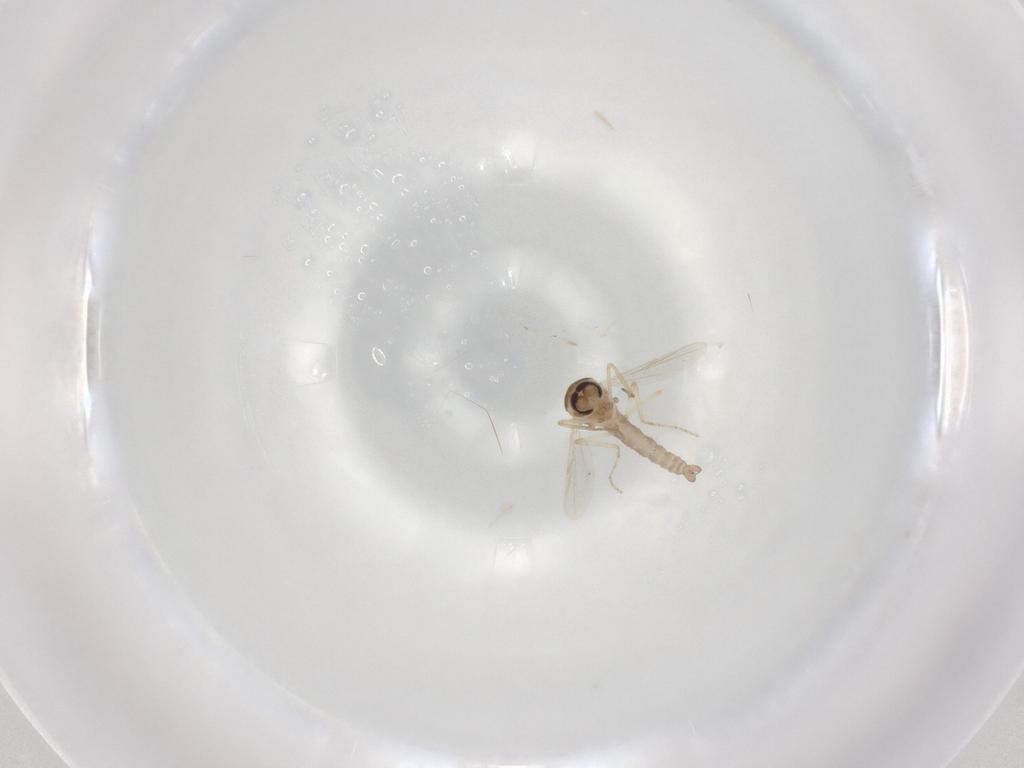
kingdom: Animalia
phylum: Arthropoda
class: Insecta
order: Diptera
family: Ceratopogonidae
